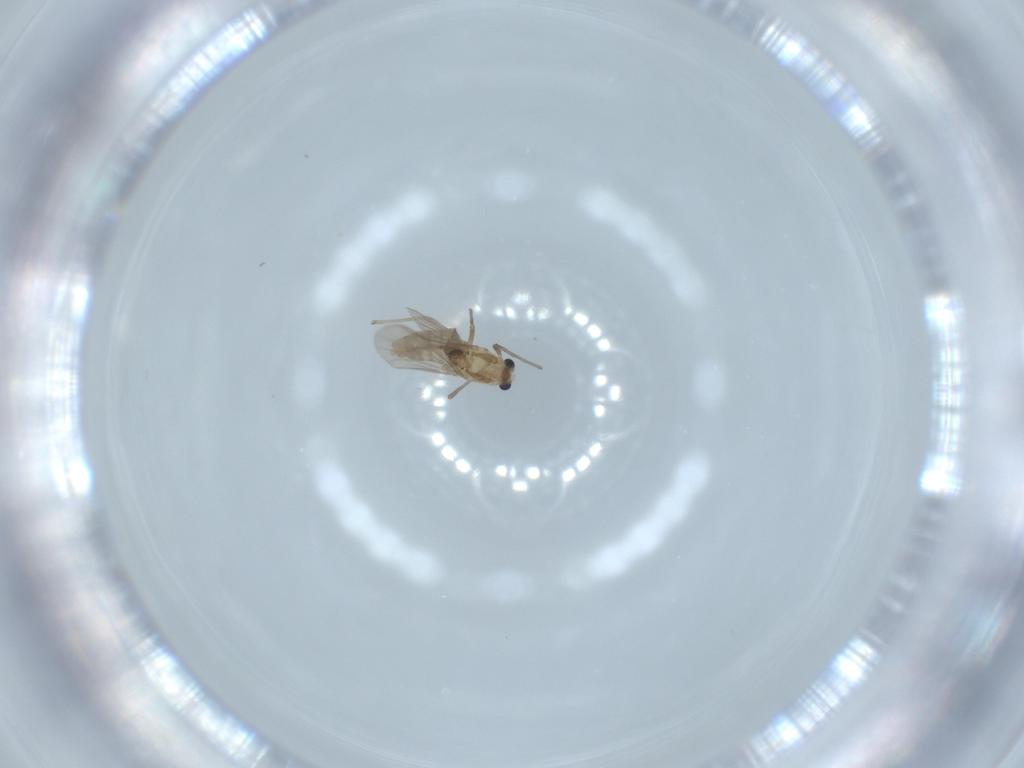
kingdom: Animalia
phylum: Arthropoda
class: Insecta
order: Diptera
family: Chironomidae
